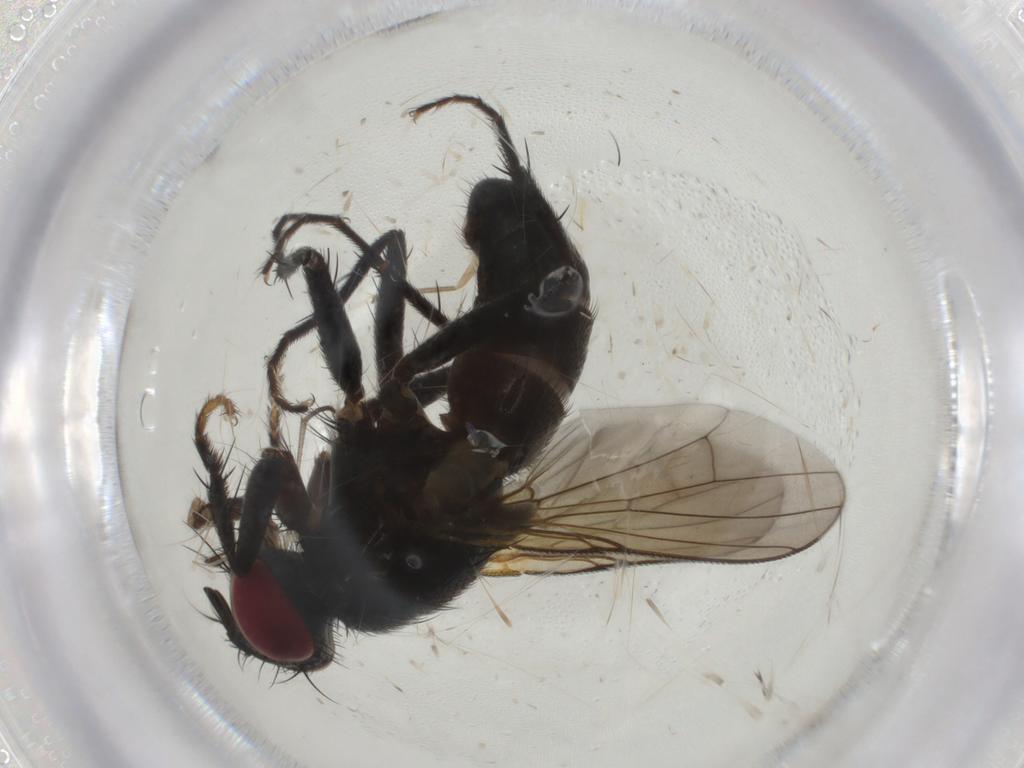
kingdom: Animalia
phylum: Arthropoda
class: Insecta
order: Diptera
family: Muscidae
